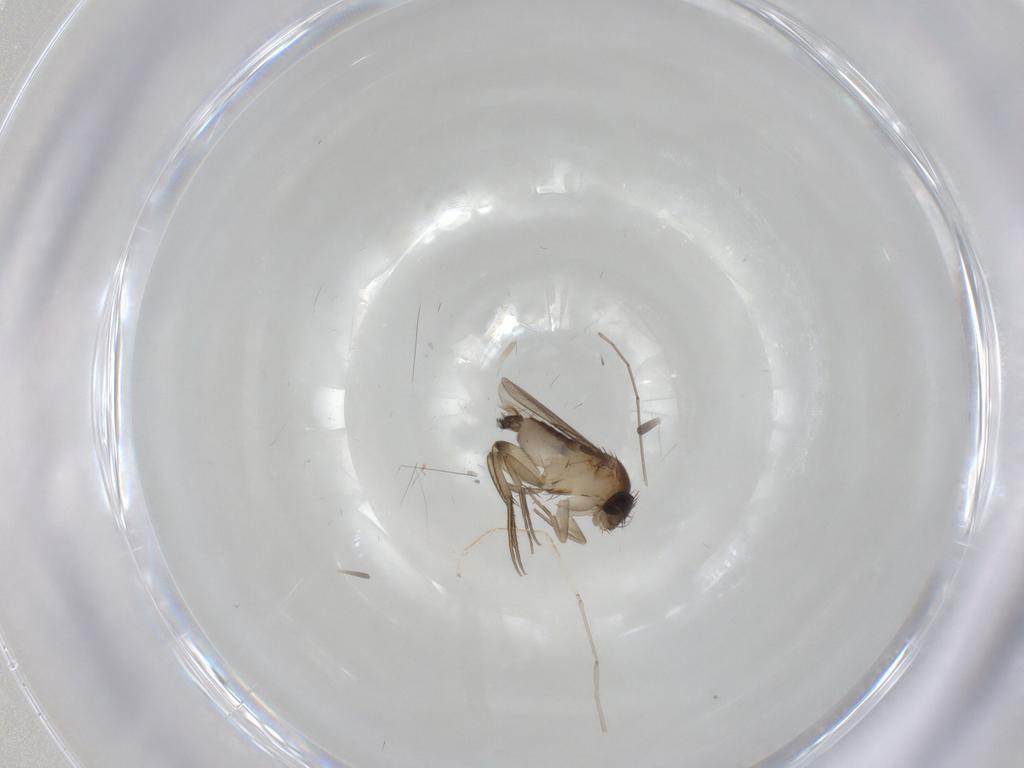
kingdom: Animalia
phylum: Arthropoda
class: Insecta
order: Diptera
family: Phoridae
